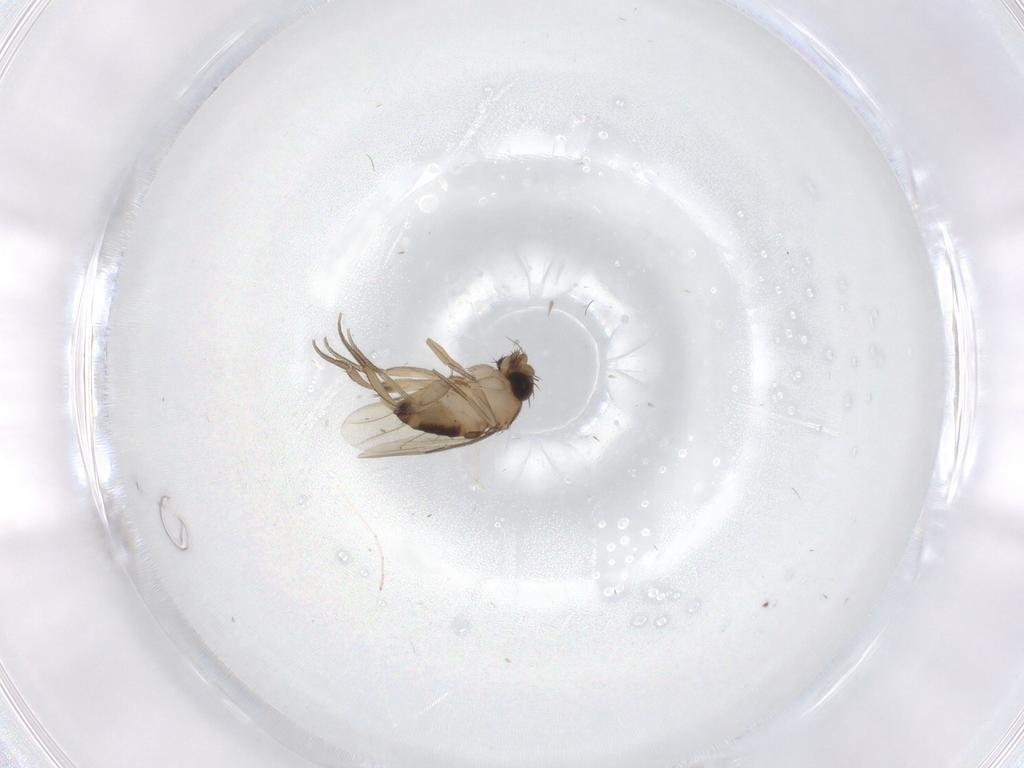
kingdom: Animalia
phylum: Arthropoda
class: Insecta
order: Diptera
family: Phoridae
